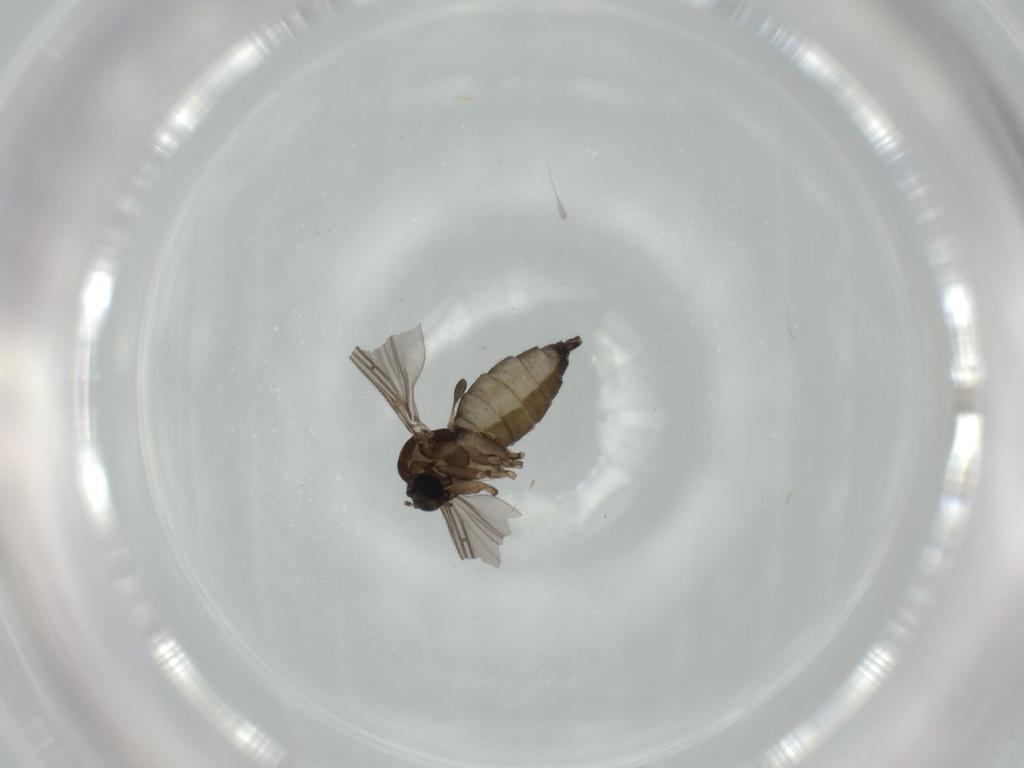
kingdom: Animalia
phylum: Arthropoda
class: Insecta
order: Diptera
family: Sciaridae
